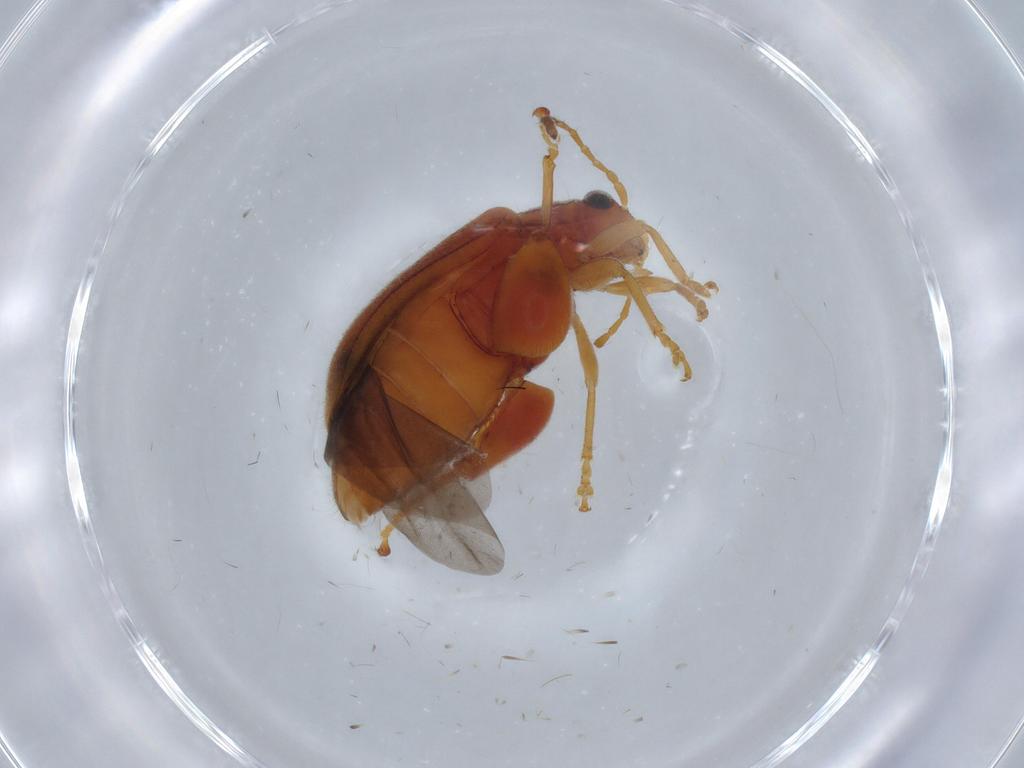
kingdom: Animalia
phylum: Arthropoda
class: Insecta
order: Coleoptera
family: Chrysomelidae
